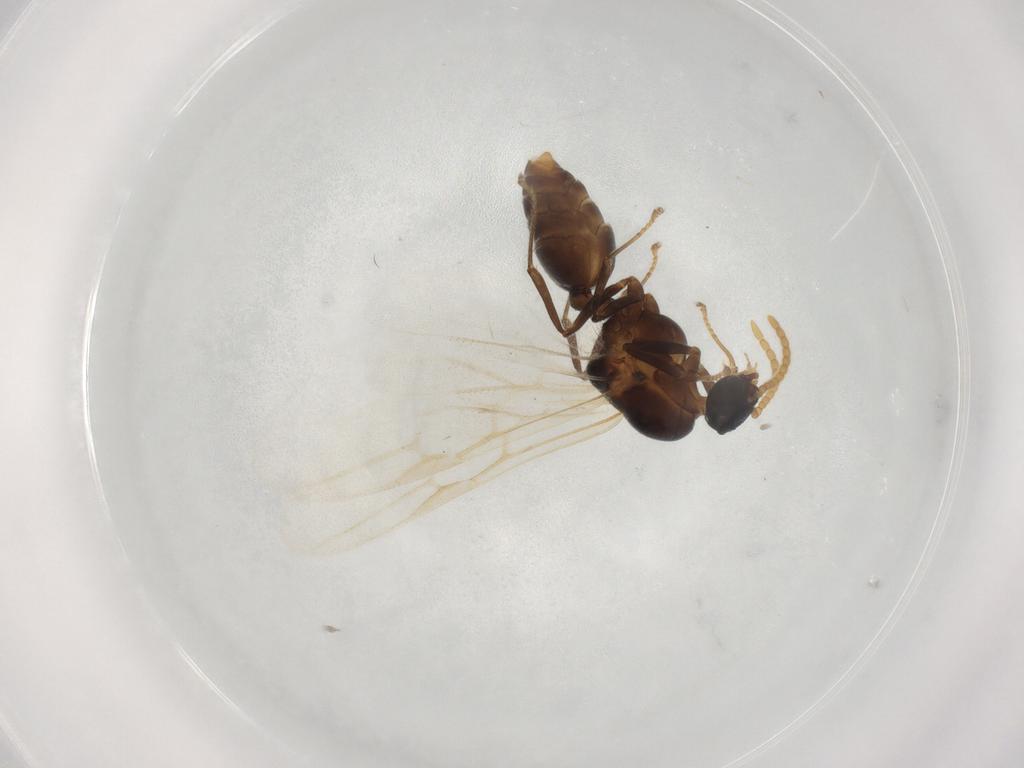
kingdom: Animalia
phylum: Arthropoda
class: Insecta
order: Hymenoptera
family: Formicidae
